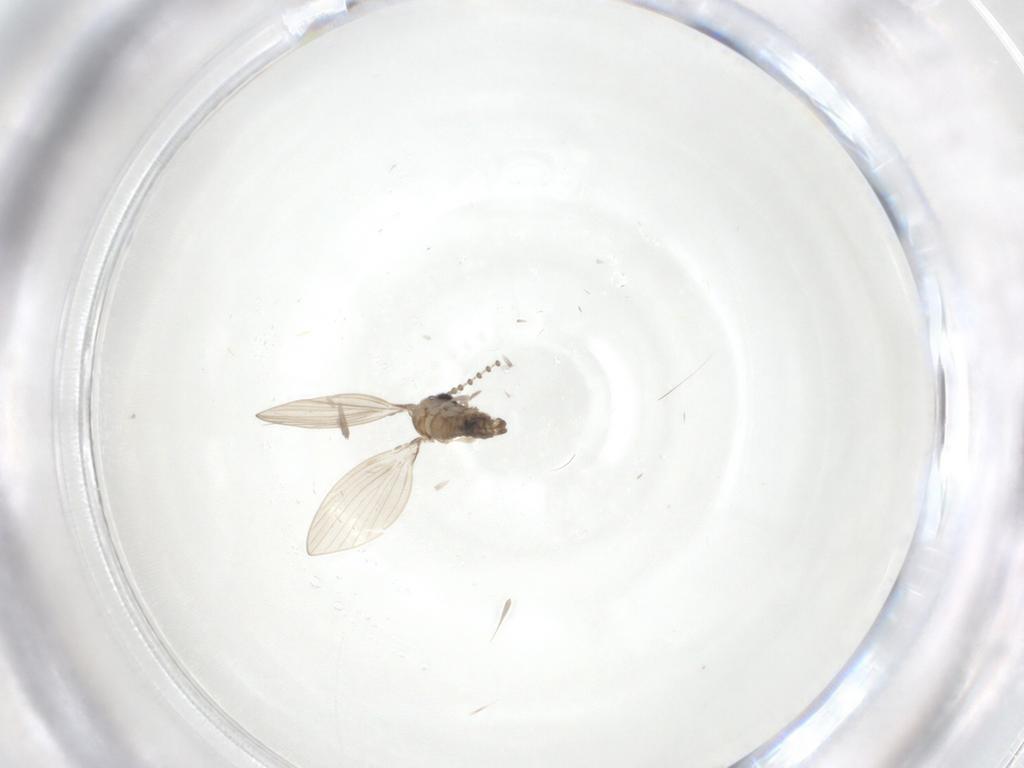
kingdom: Animalia
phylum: Arthropoda
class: Insecta
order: Diptera
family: Psychodidae
